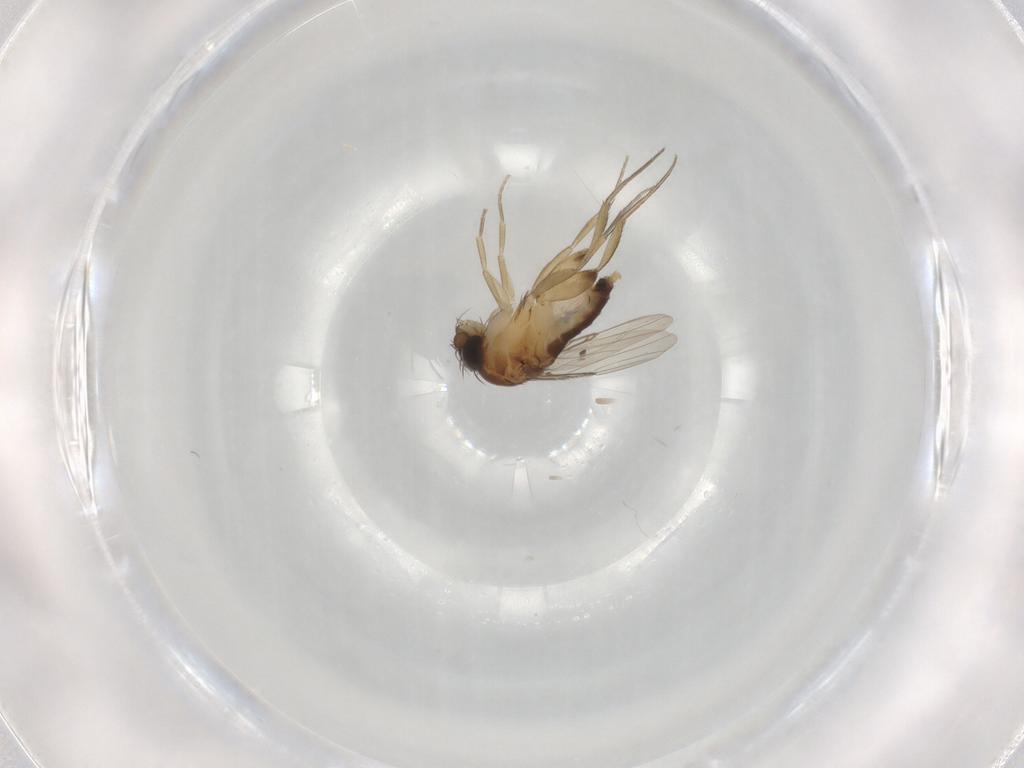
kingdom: Animalia
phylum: Arthropoda
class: Insecta
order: Diptera
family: Phoridae
